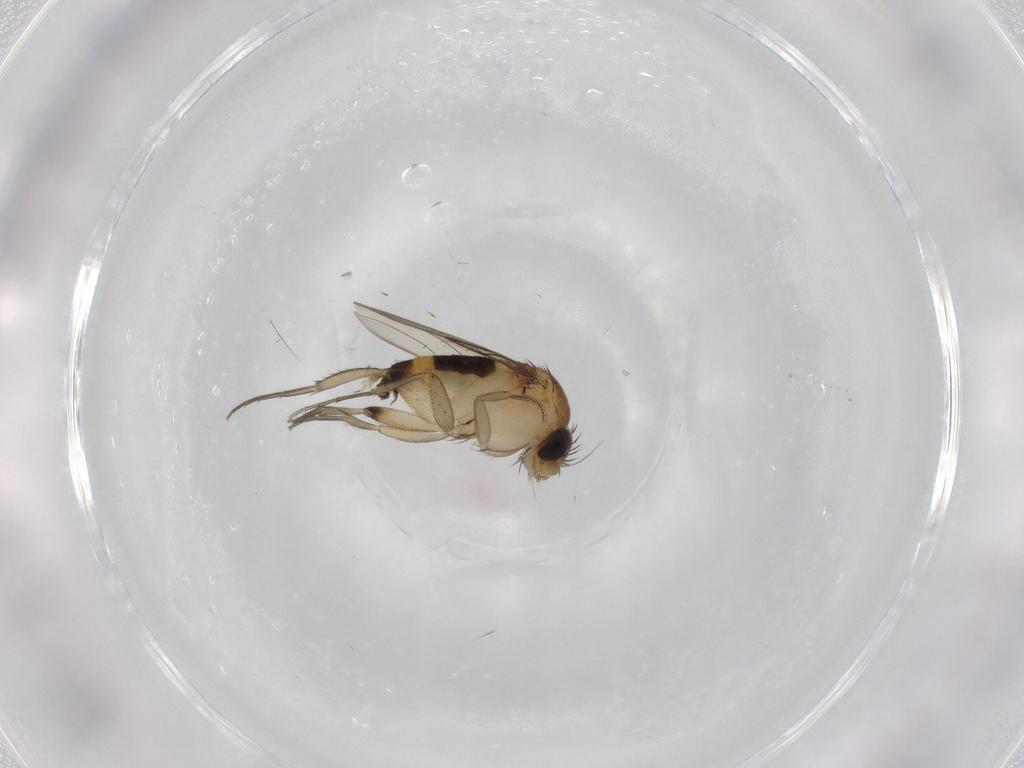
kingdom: Animalia
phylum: Arthropoda
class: Insecta
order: Diptera
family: Phoridae
